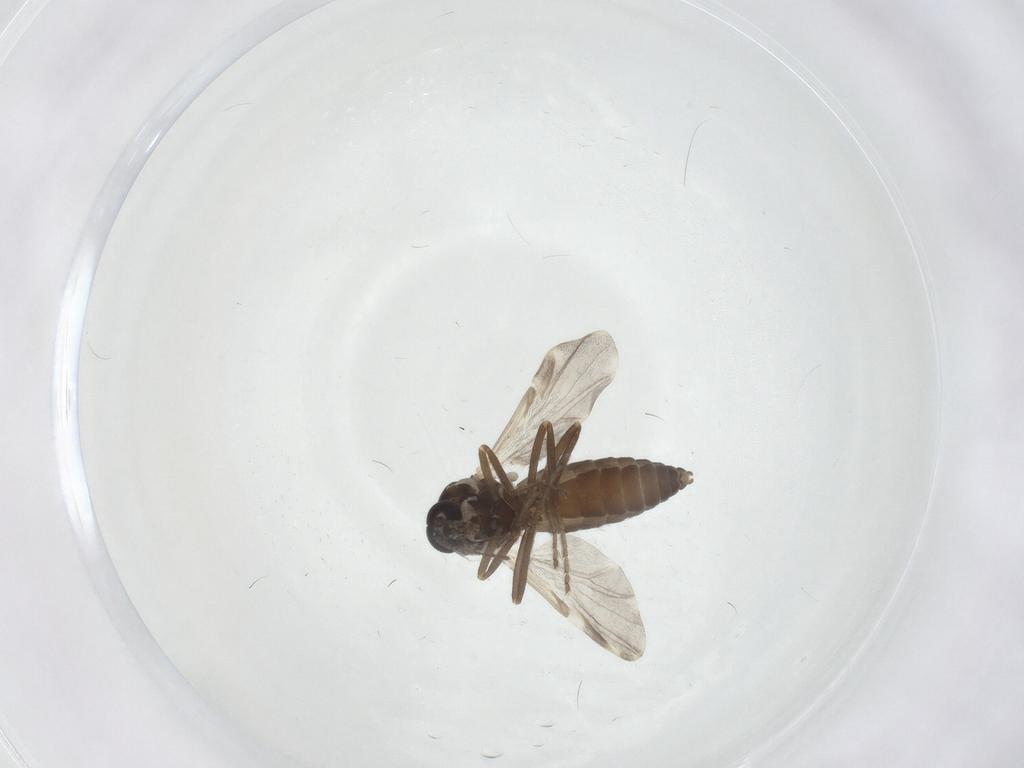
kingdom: Animalia
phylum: Arthropoda
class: Insecta
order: Diptera
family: Ceratopogonidae
